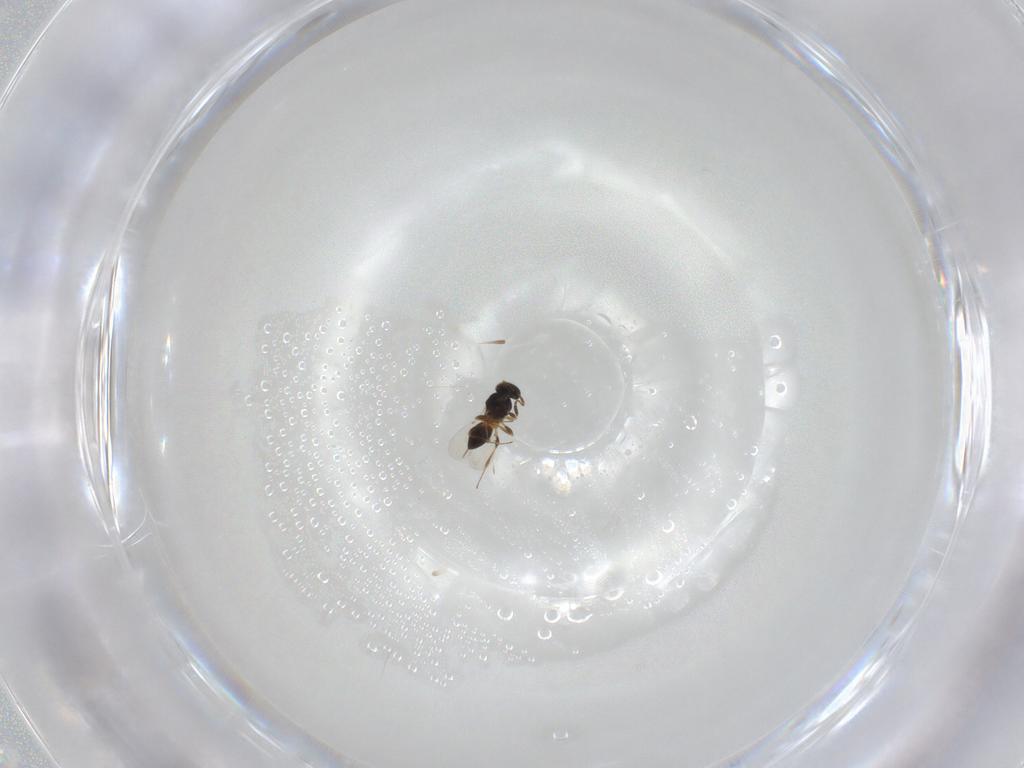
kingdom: Animalia
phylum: Arthropoda
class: Insecta
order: Hymenoptera
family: Platygastridae
